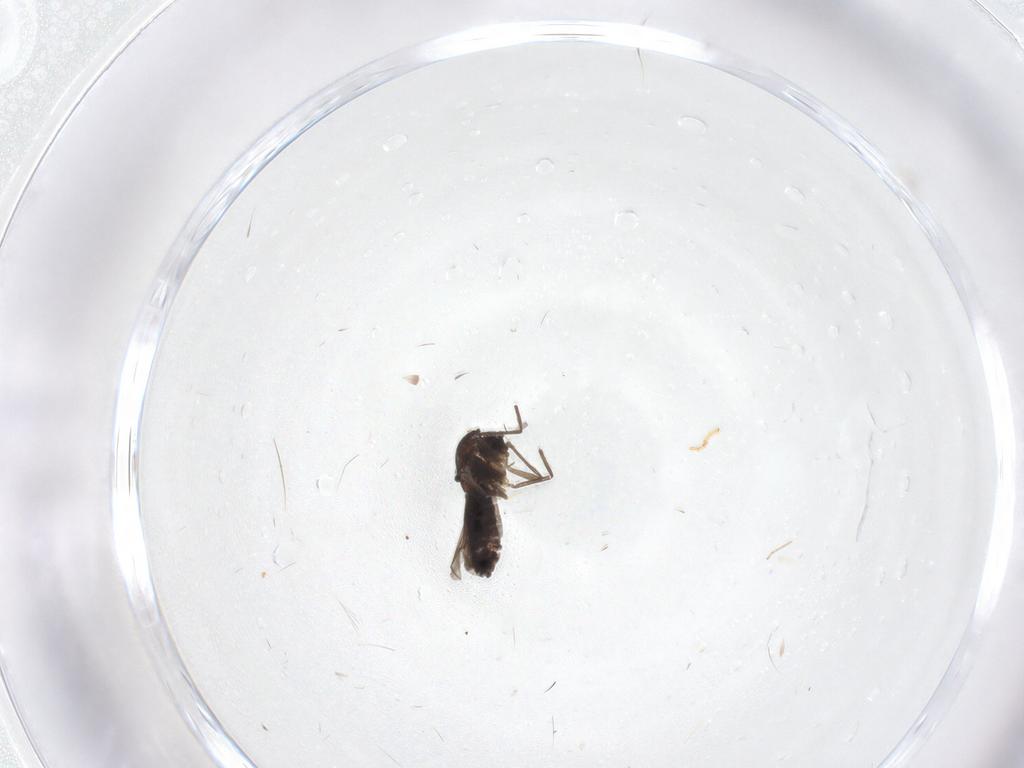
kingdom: Animalia
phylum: Arthropoda
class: Insecta
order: Diptera
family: Chironomidae
